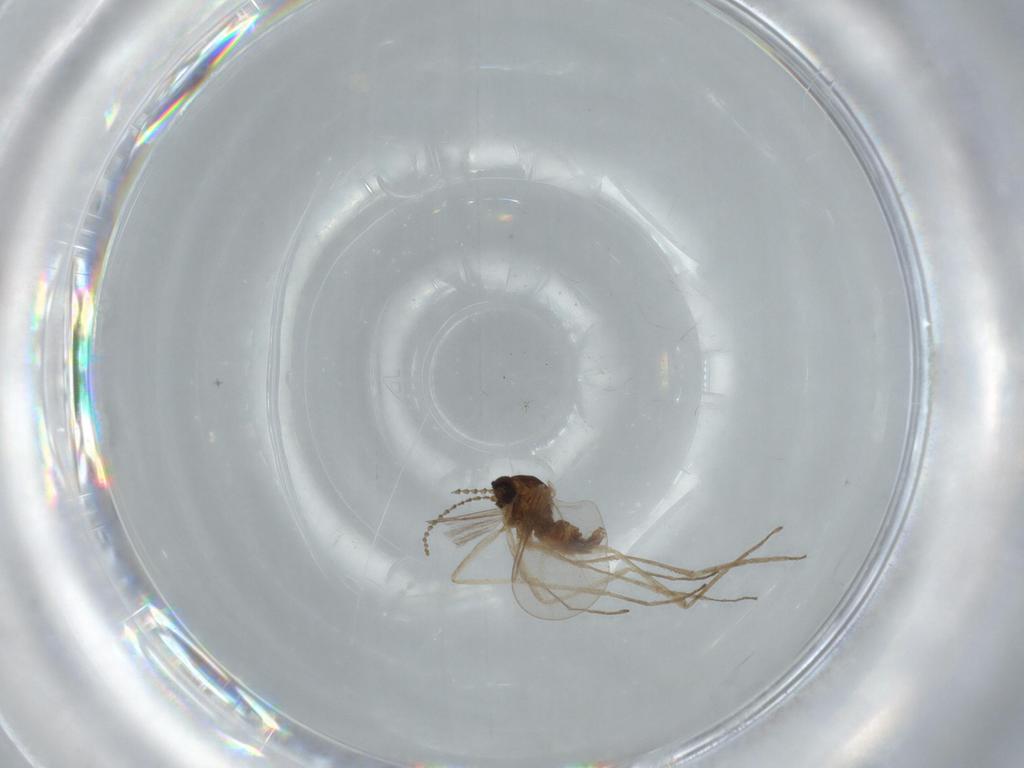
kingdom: Animalia
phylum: Arthropoda
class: Insecta
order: Diptera
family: Cecidomyiidae
